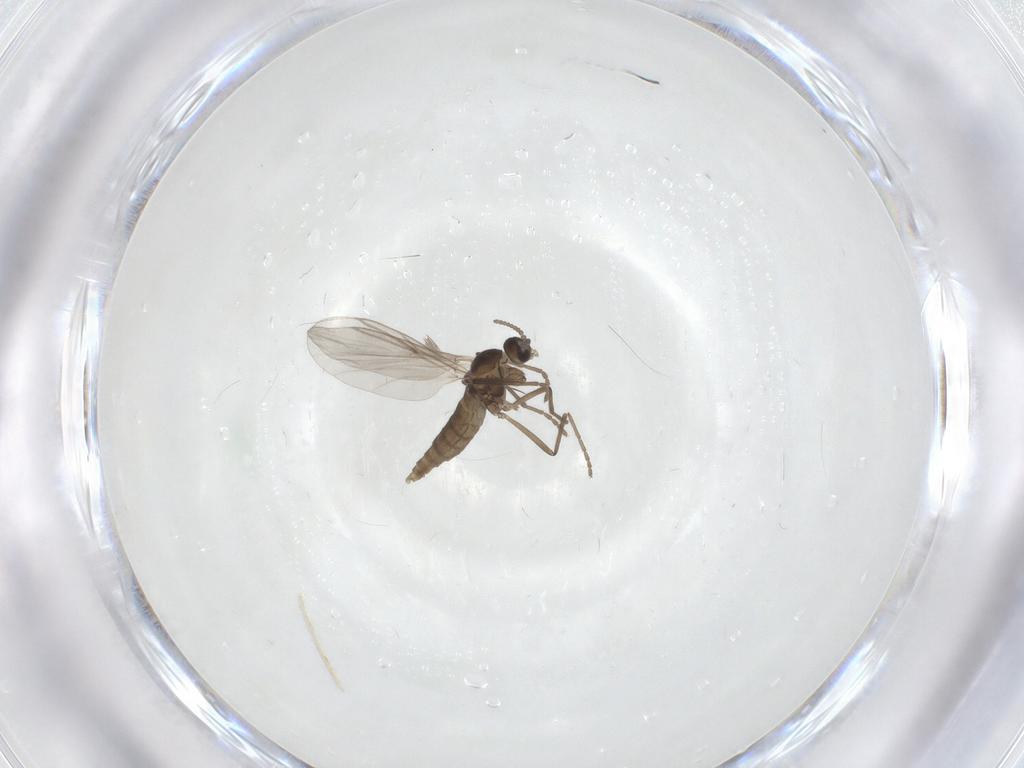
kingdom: Animalia
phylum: Arthropoda
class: Insecta
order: Diptera
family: Cecidomyiidae
